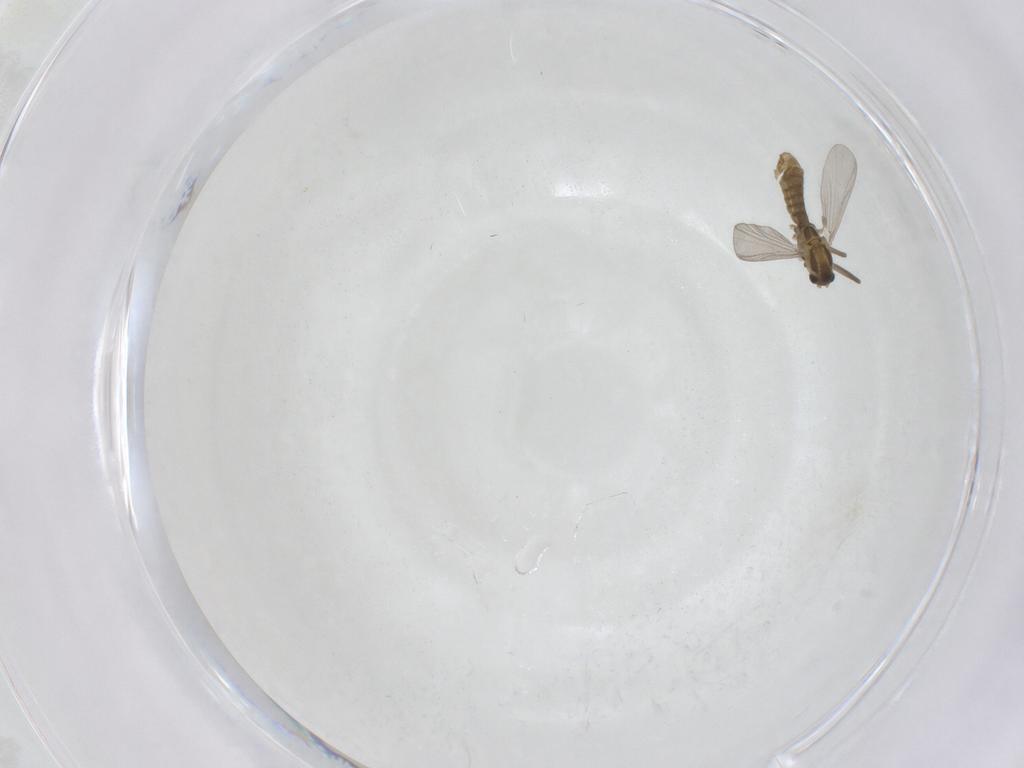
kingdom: Animalia
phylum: Arthropoda
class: Insecta
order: Diptera
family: Chironomidae
